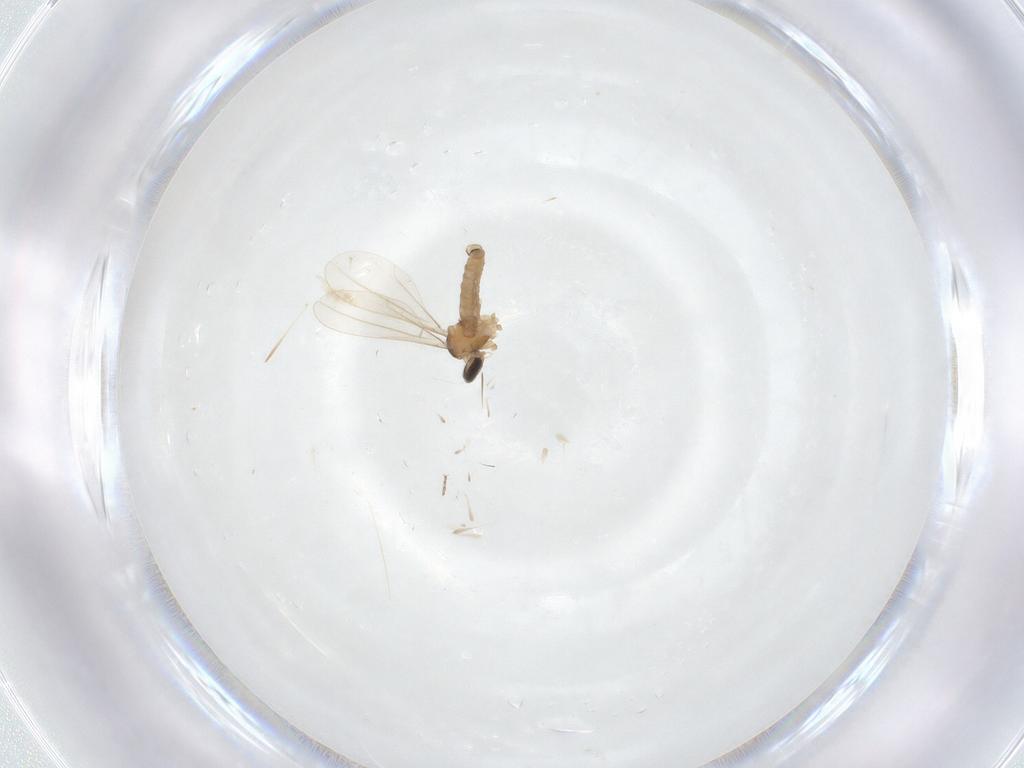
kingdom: Animalia
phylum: Arthropoda
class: Insecta
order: Diptera
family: Cecidomyiidae
